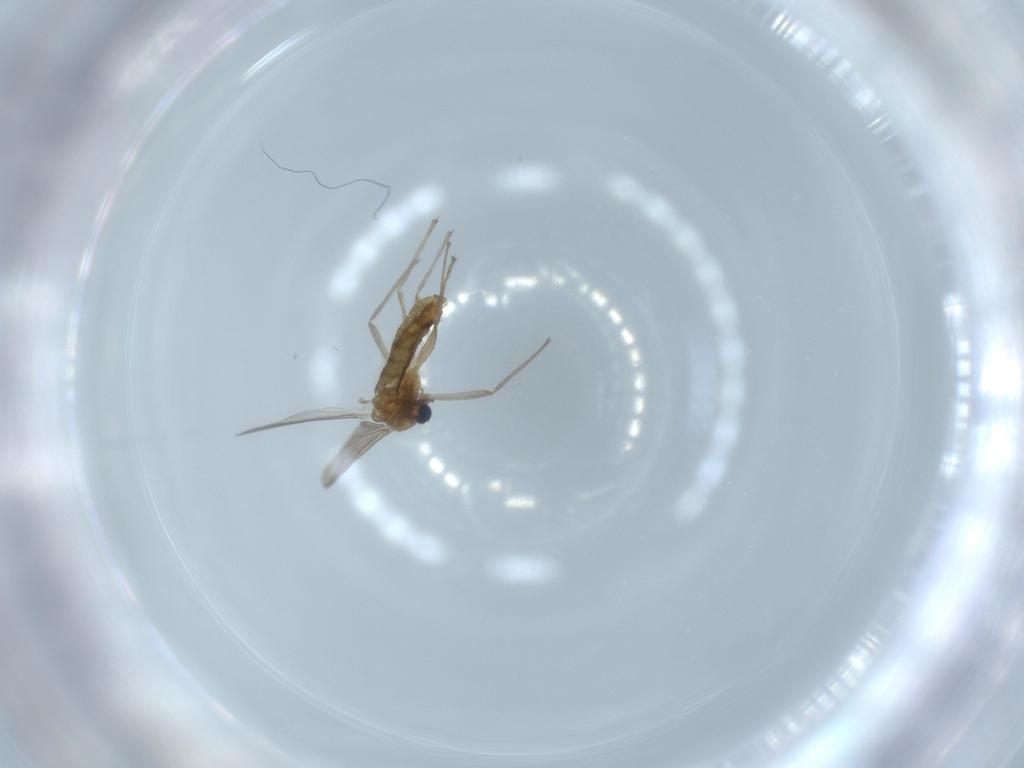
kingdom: Animalia
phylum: Arthropoda
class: Insecta
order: Diptera
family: Chironomidae
